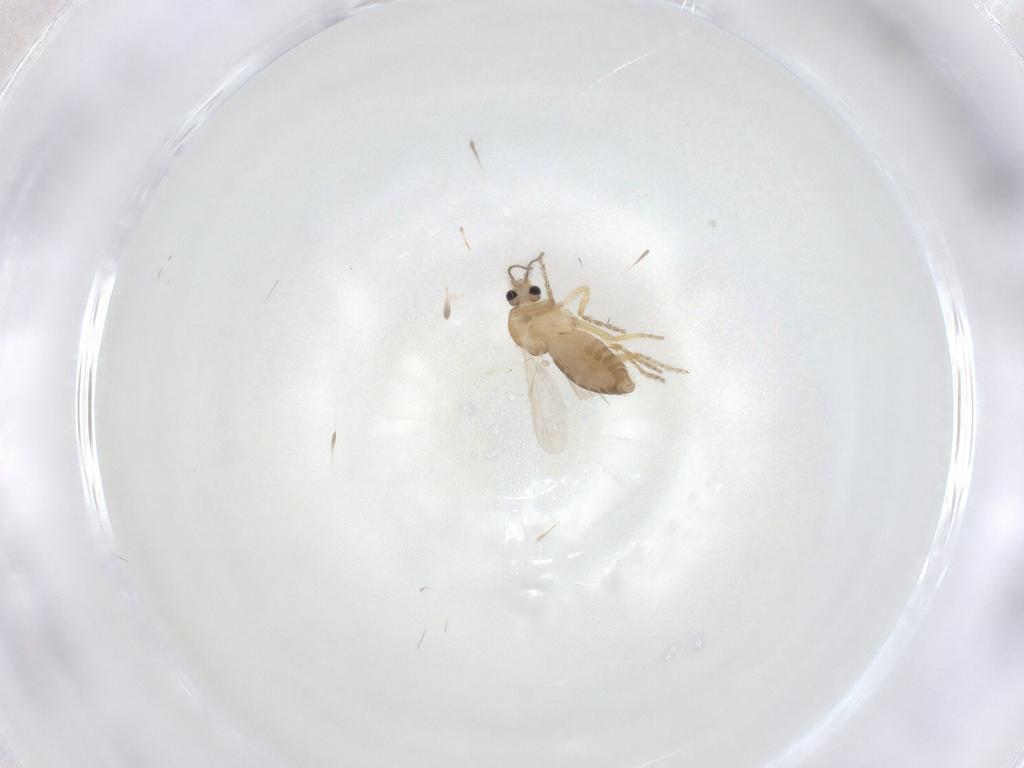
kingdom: Animalia
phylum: Arthropoda
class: Insecta
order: Diptera
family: Ceratopogonidae
